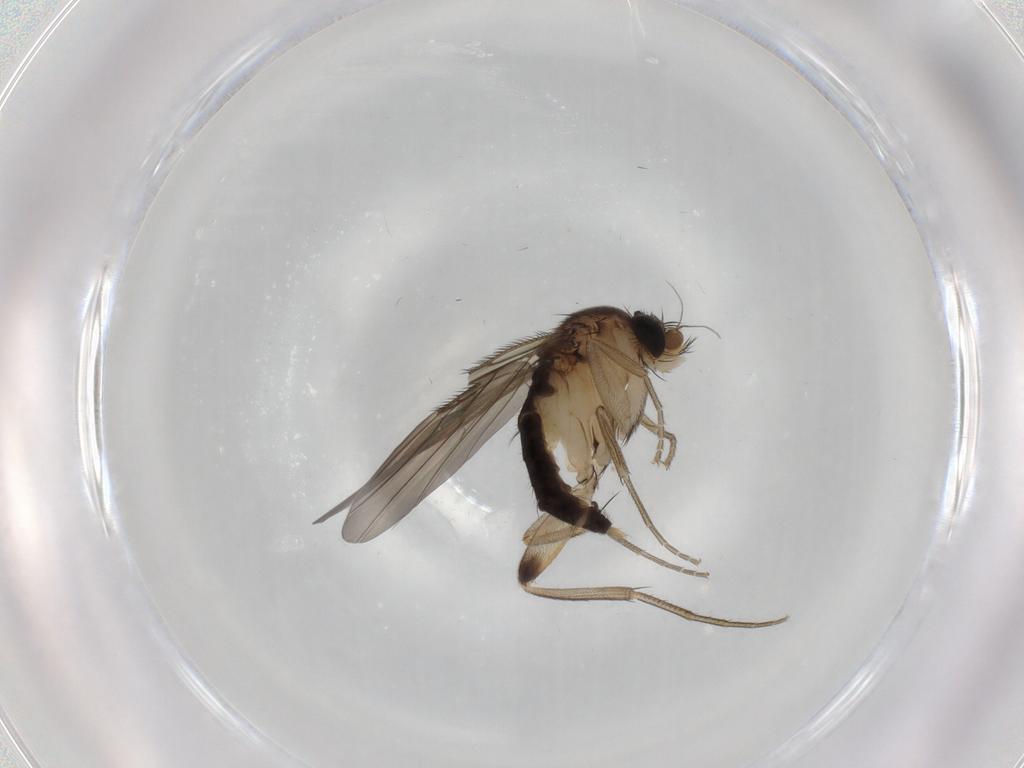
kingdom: Animalia
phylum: Arthropoda
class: Insecta
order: Diptera
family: Phoridae
